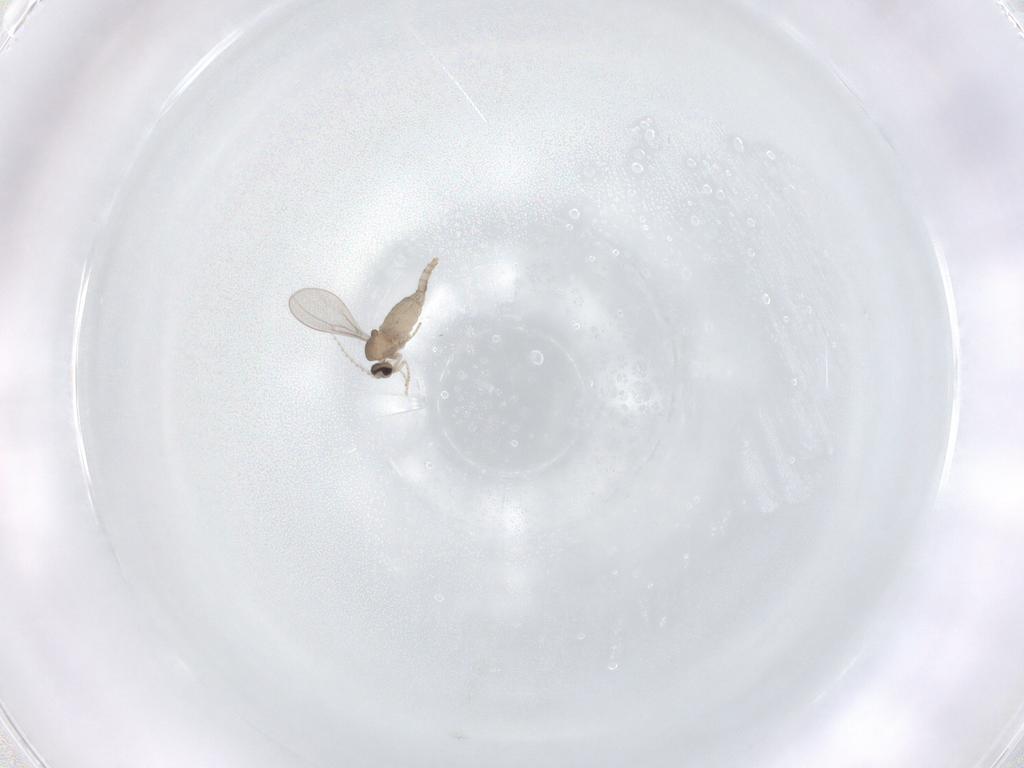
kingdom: Animalia
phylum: Arthropoda
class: Insecta
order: Diptera
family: Cecidomyiidae
